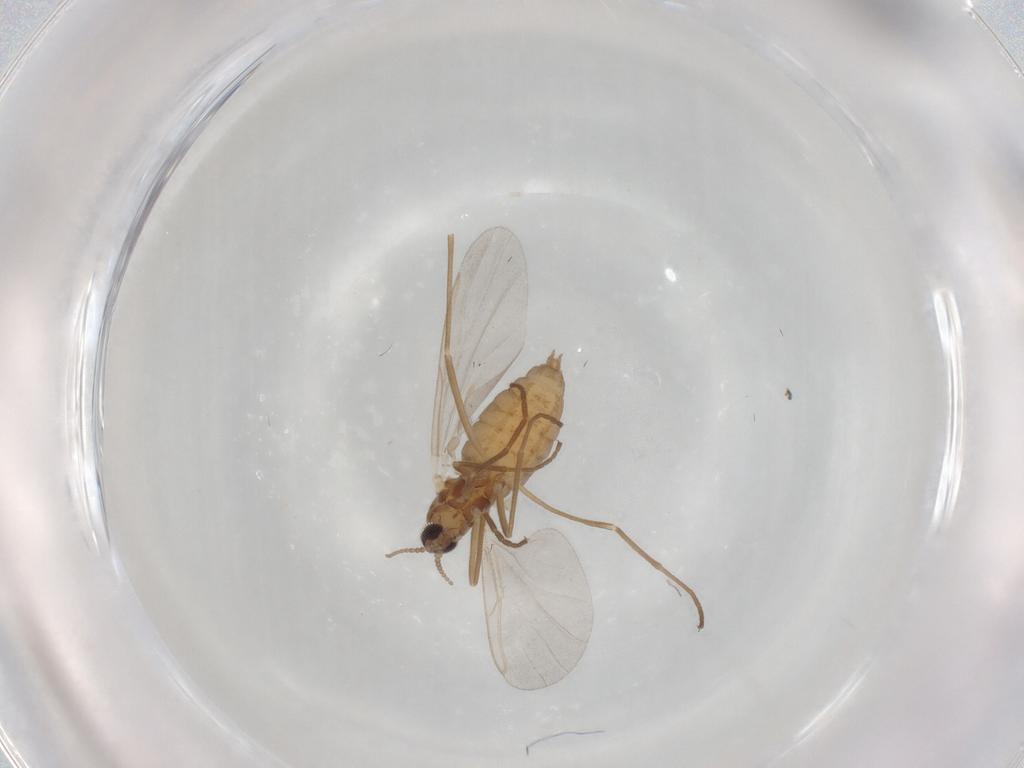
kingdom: Animalia
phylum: Arthropoda
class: Insecta
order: Diptera
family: Cecidomyiidae
